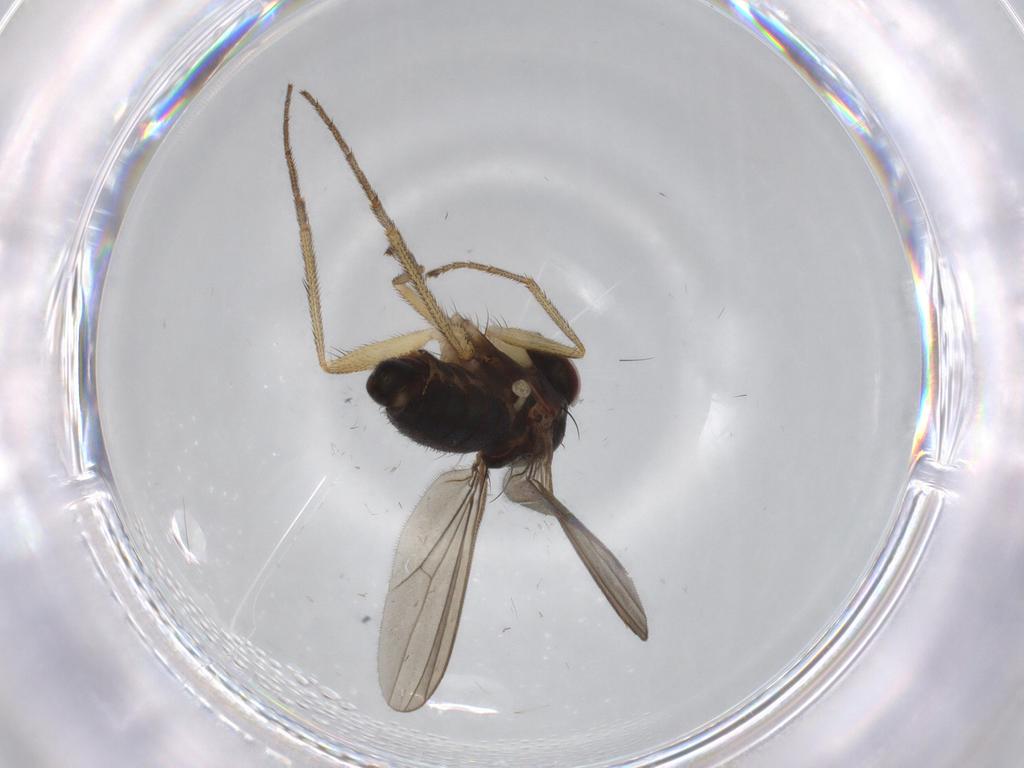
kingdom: Animalia
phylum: Arthropoda
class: Insecta
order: Diptera
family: Dolichopodidae
